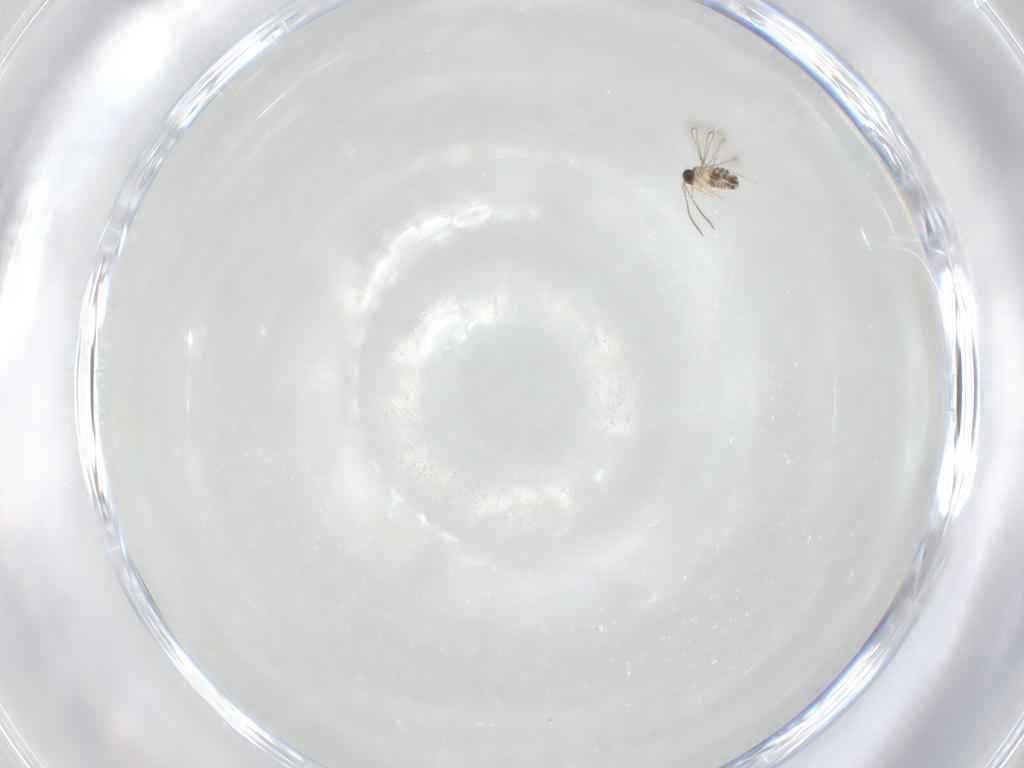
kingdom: Animalia
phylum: Arthropoda
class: Insecta
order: Hymenoptera
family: Mymaridae
